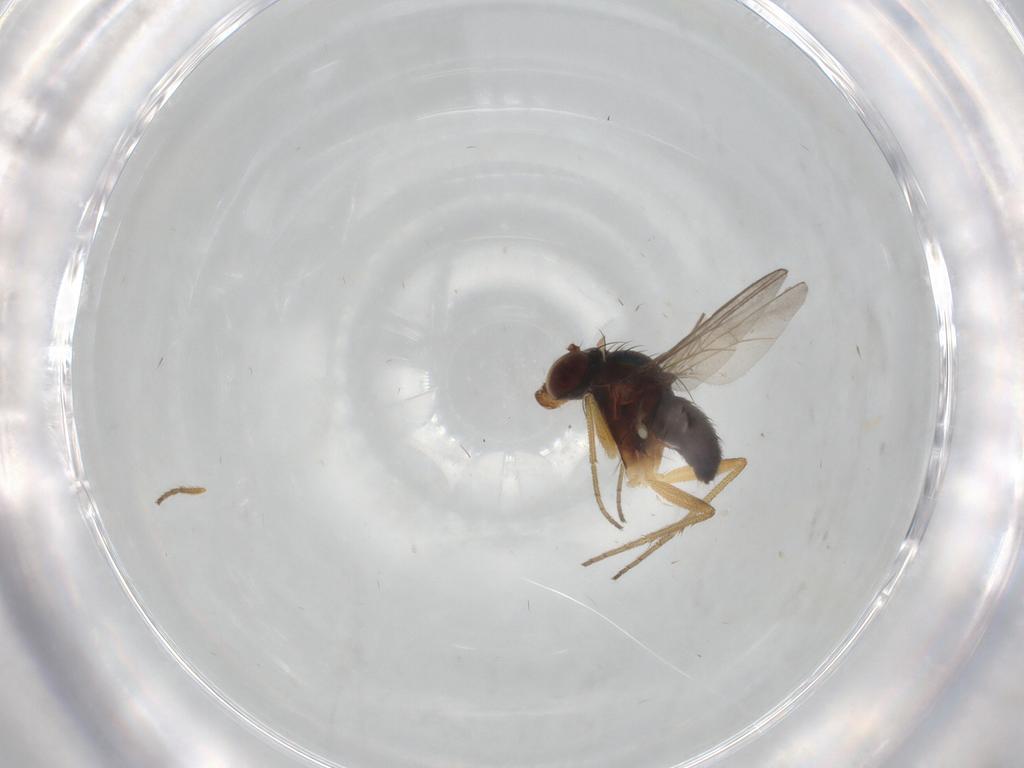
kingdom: Animalia
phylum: Arthropoda
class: Insecta
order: Diptera
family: Dolichopodidae
